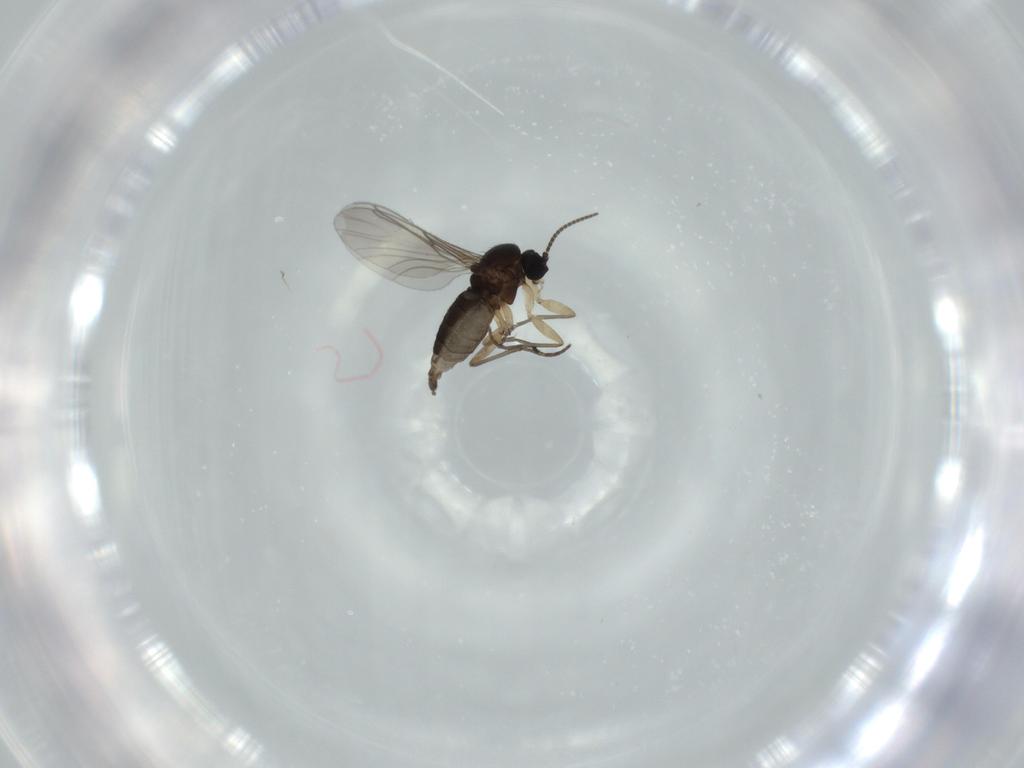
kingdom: Animalia
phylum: Arthropoda
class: Insecta
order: Diptera
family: Sciaridae
